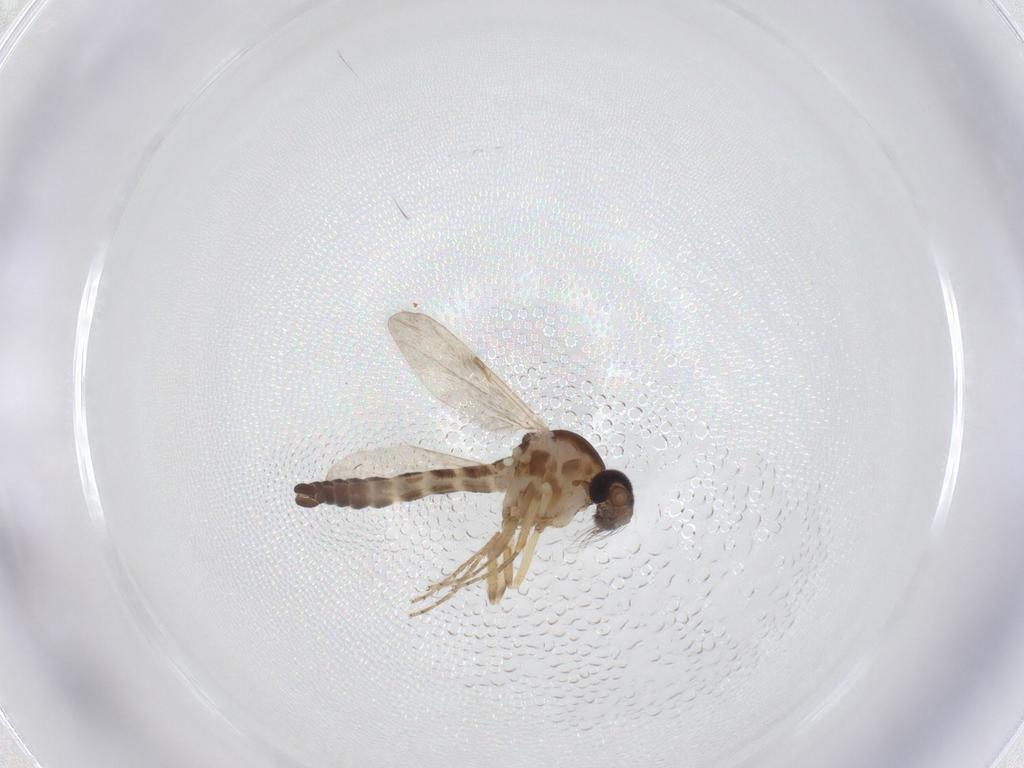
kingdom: Animalia
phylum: Arthropoda
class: Insecta
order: Diptera
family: Ceratopogonidae
